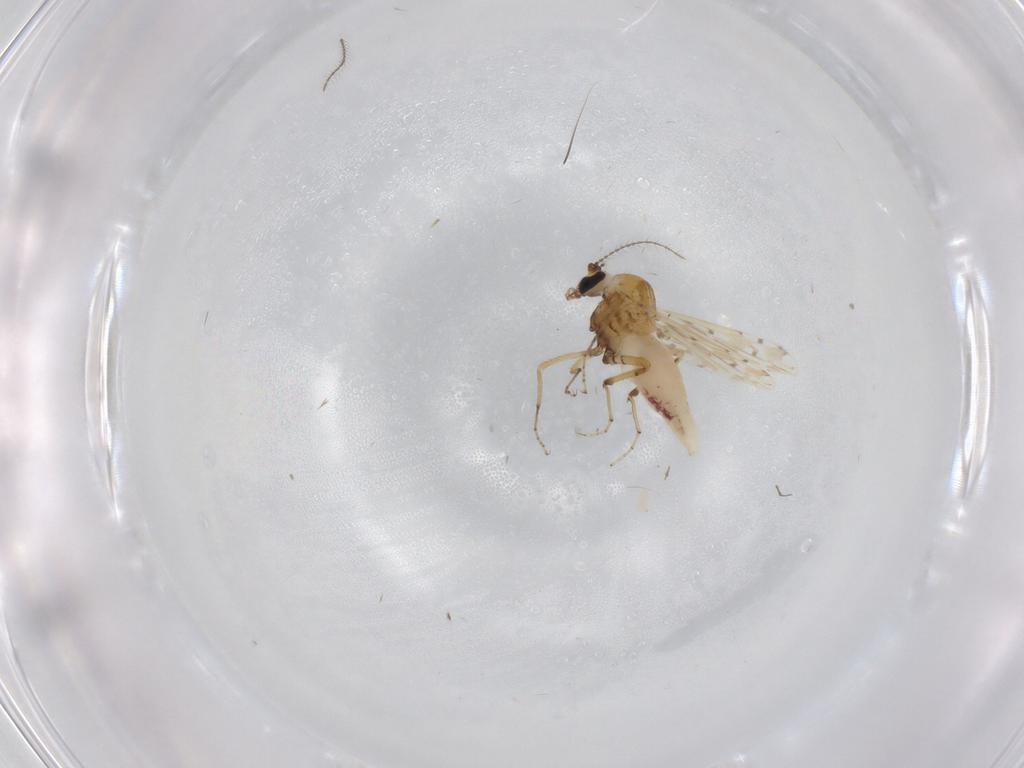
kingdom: Animalia
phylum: Arthropoda
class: Insecta
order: Diptera
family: Ceratopogonidae
